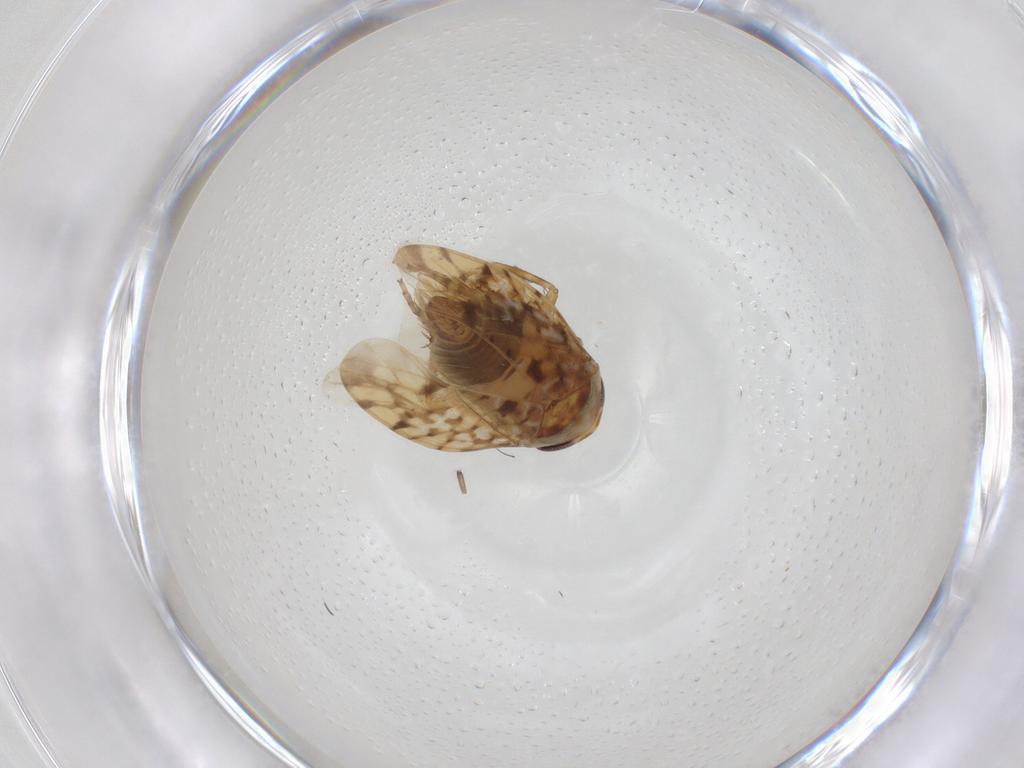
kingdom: Animalia
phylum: Arthropoda
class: Insecta
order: Hemiptera
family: Cicadellidae
